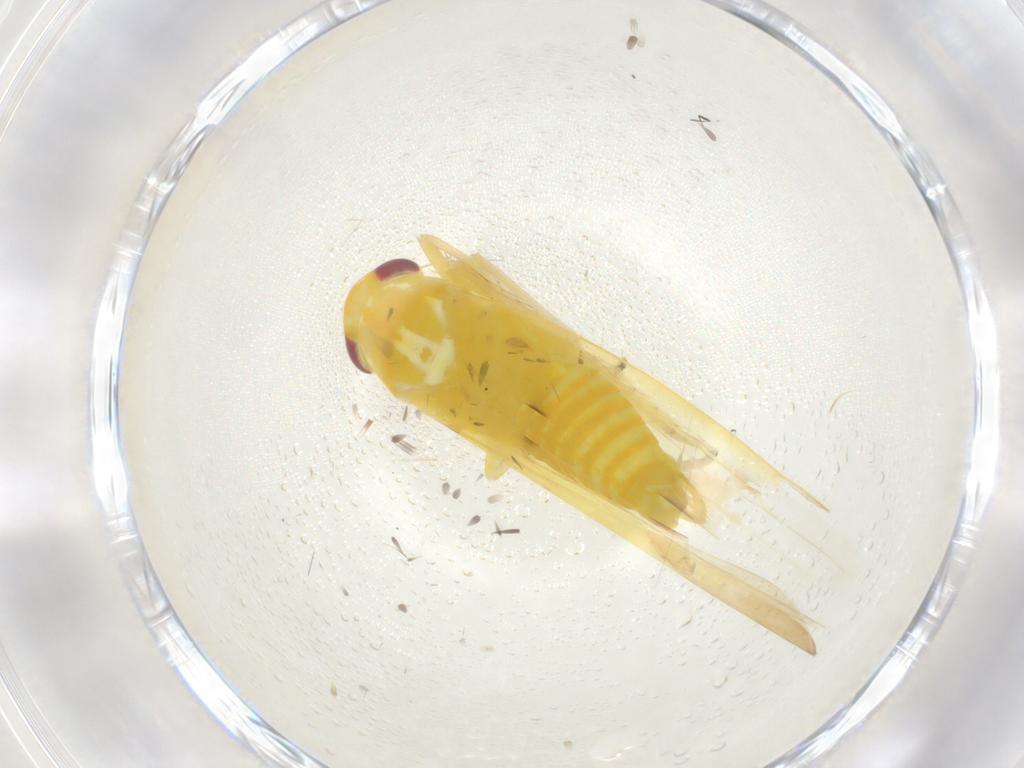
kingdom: Animalia
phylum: Arthropoda
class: Insecta
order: Hemiptera
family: Cicadellidae
